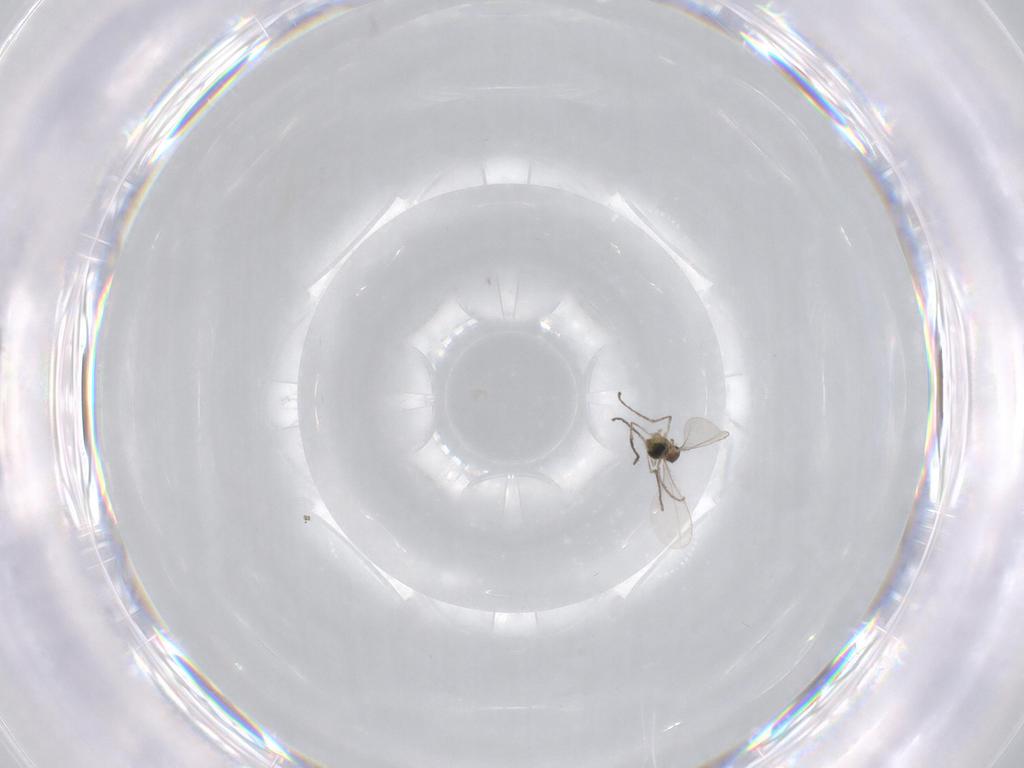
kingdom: Animalia
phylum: Arthropoda
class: Insecta
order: Diptera
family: Cecidomyiidae
